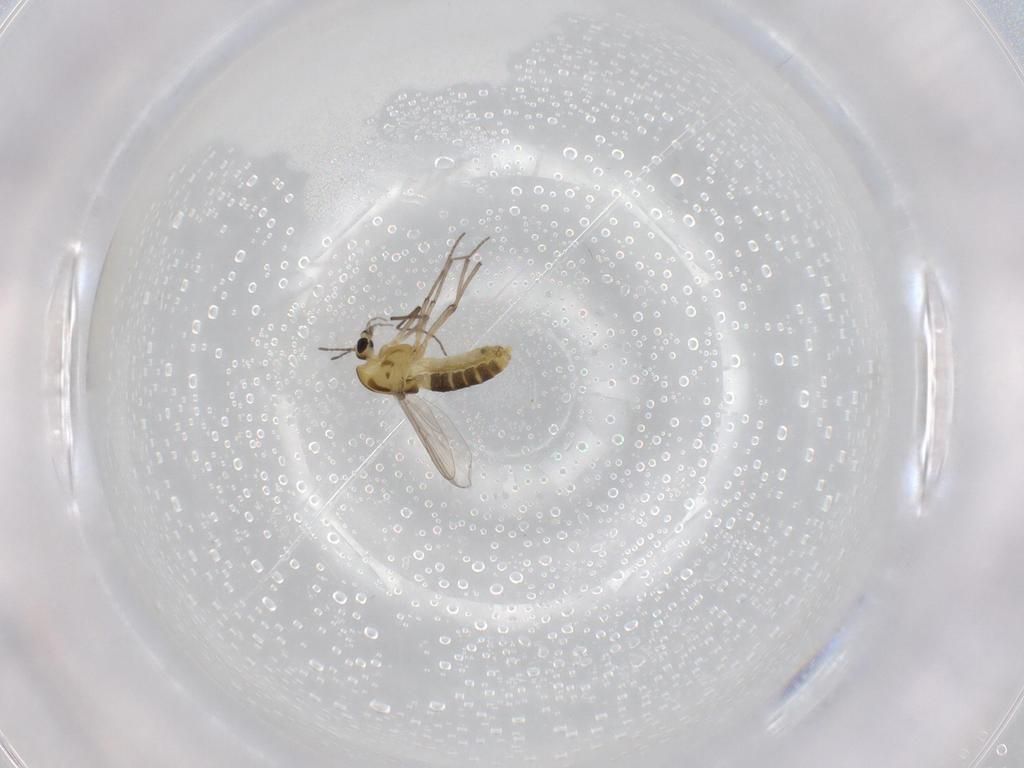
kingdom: Animalia
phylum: Arthropoda
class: Insecta
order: Diptera
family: Chironomidae
